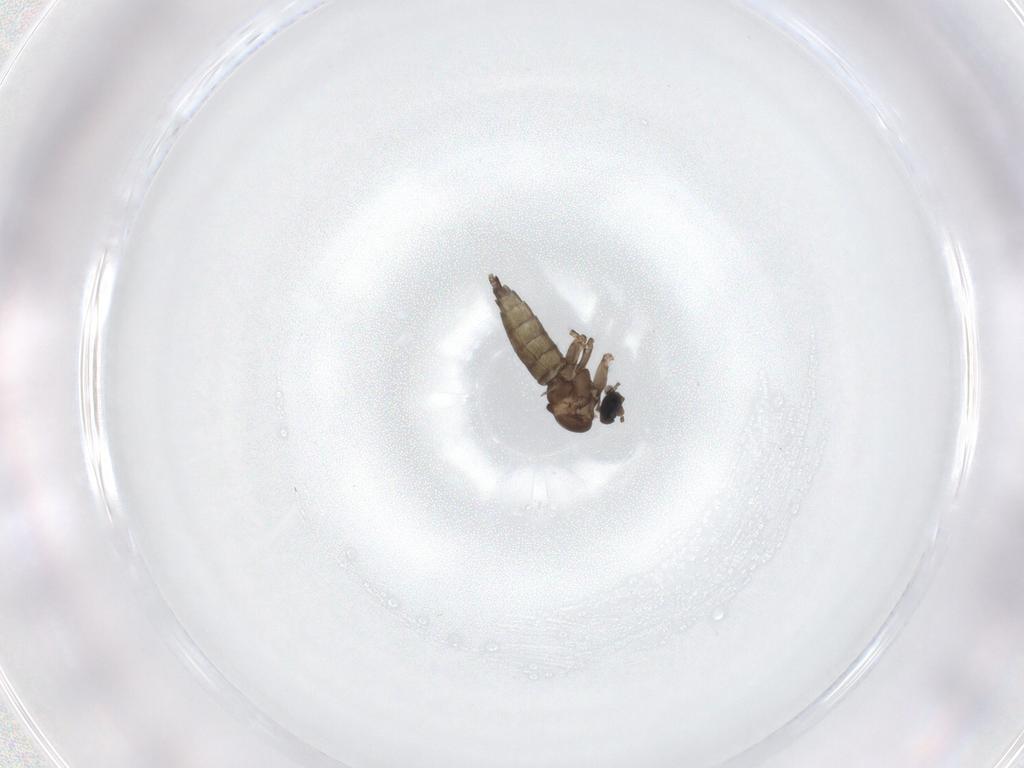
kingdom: Animalia
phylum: Arthropoda
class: Insecta
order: Diptera
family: Sciaridae
